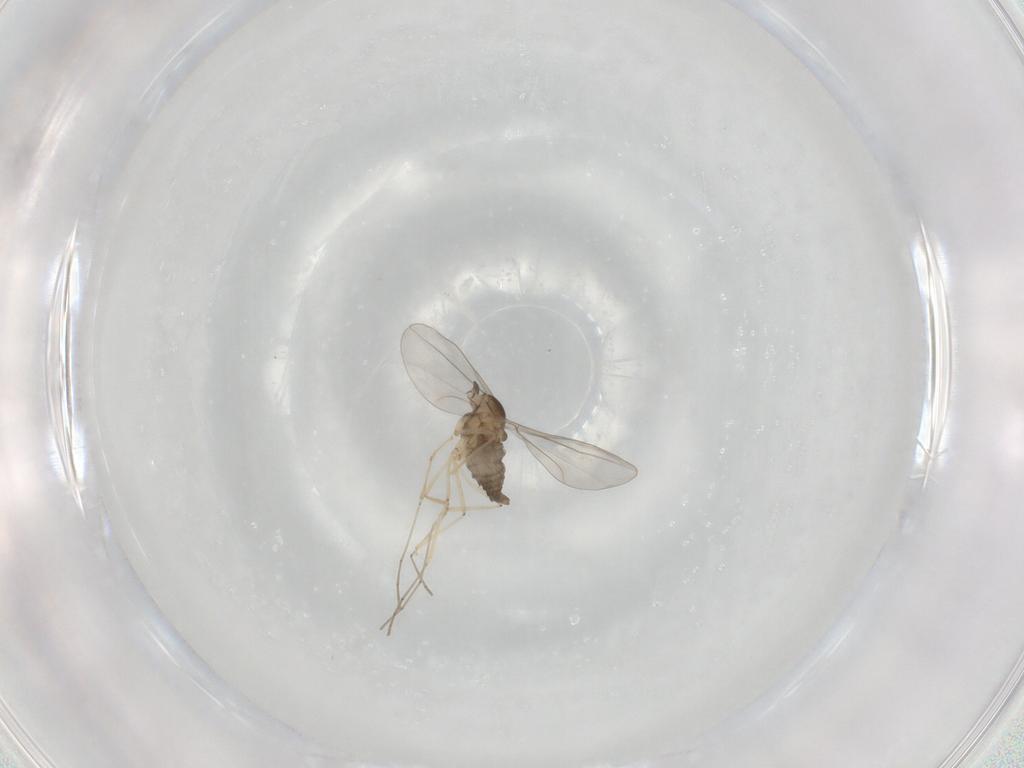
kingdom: Animalia
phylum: Arthropoda
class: Insecta
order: Diptera
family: Cecidomyiidae
